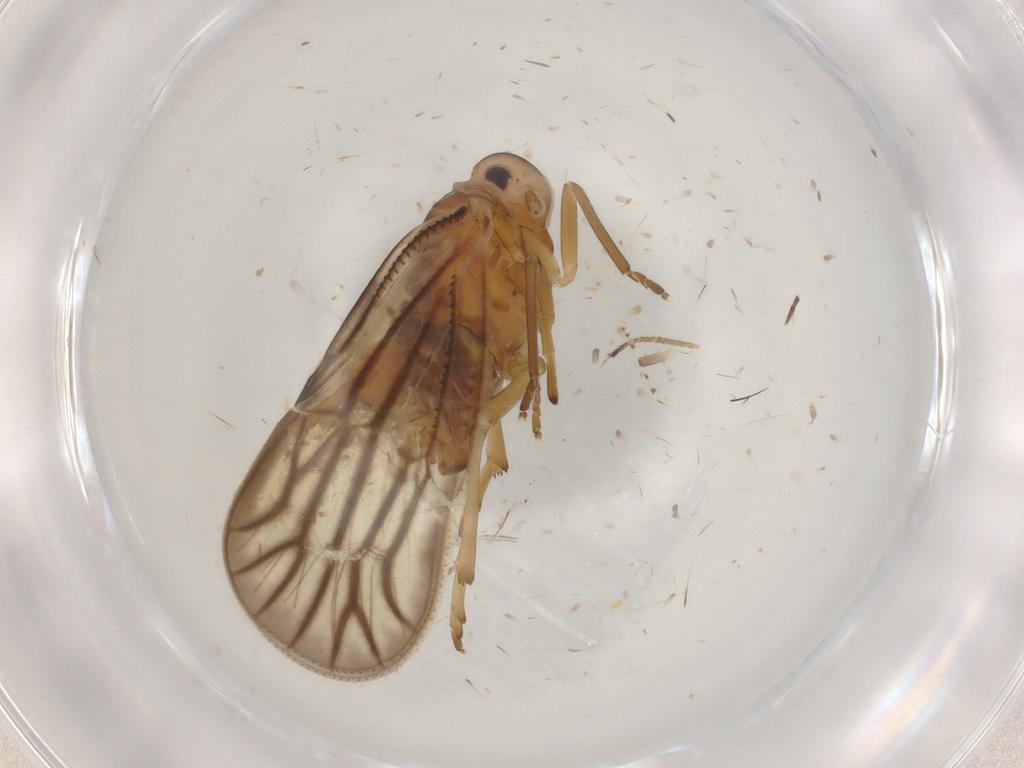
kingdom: Animalia
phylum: Arthropoda
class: Insecta
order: Hemiptera
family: Meenoplidae
